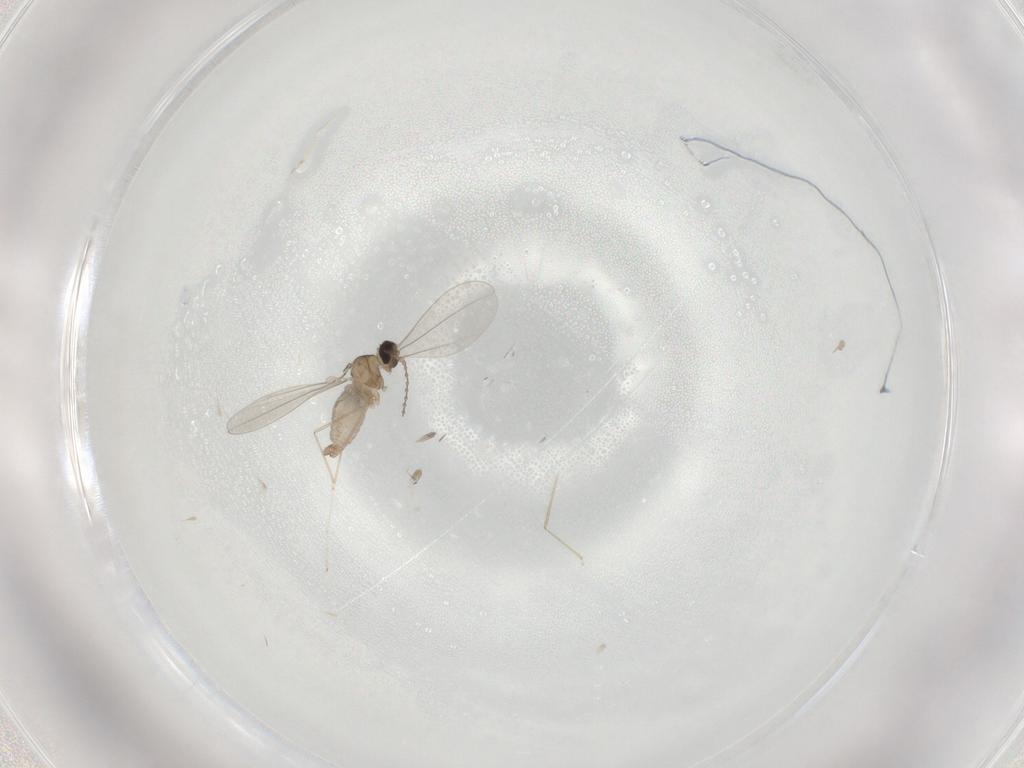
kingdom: Animalia
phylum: Arthropoda
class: Insecta
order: Diptera
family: Cecidomyiidae
